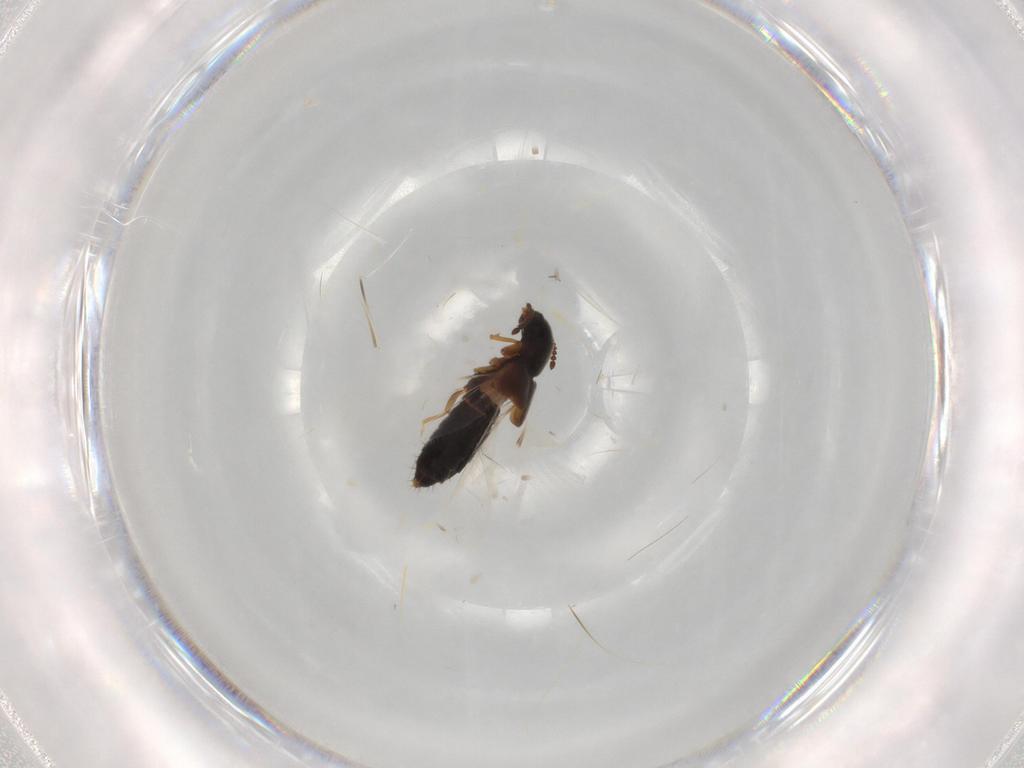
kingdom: Animalia
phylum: Arthropoda
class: Insecta
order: Coleoptera
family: Staphylinidae
